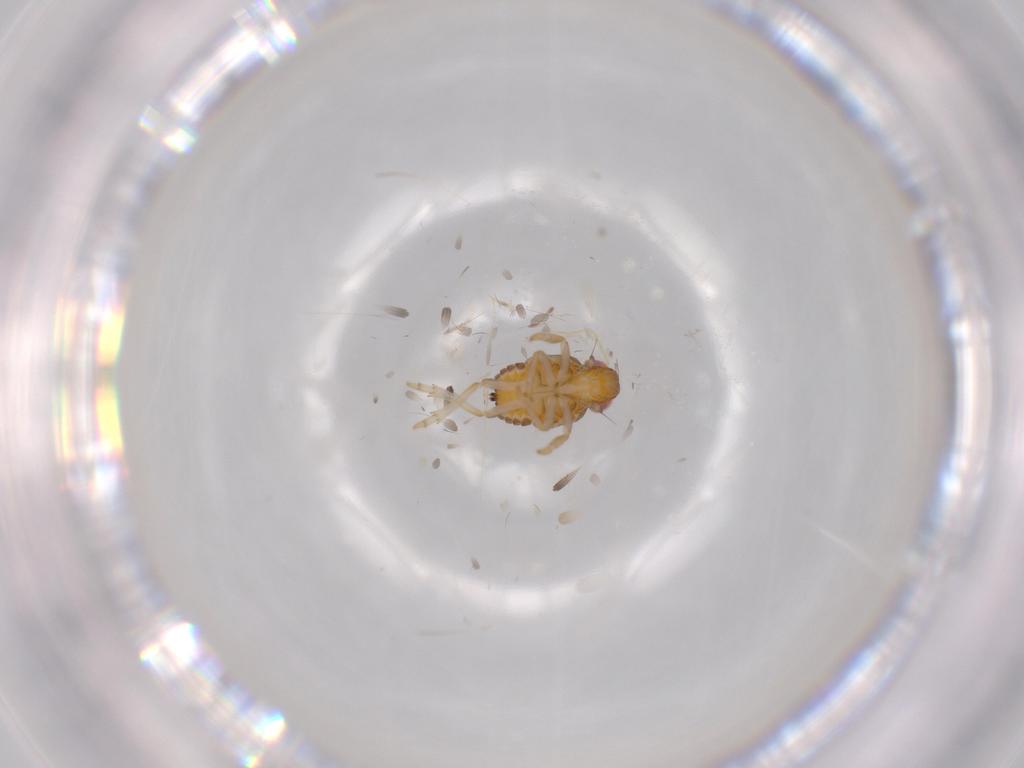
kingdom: Animalia
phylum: Arthropoda
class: Insecta
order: Hemiptera
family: Issidae
